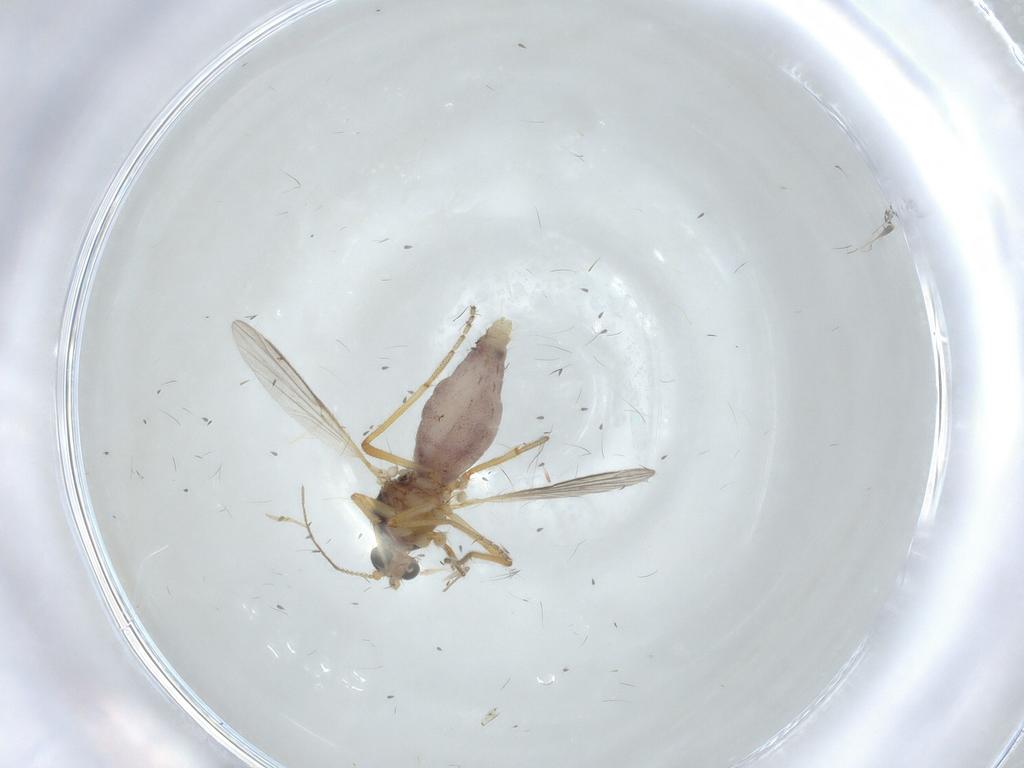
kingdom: Animalia
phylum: Arthropoda
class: Insecta
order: Diptera
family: Ceratopogonidae
